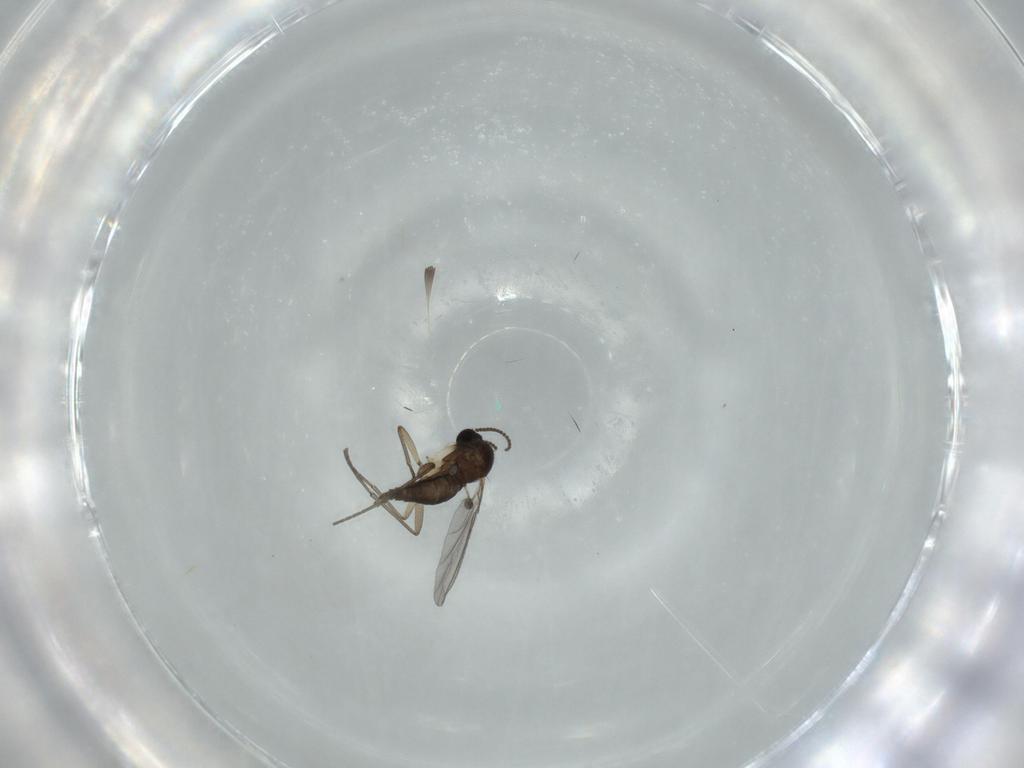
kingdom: Animalia
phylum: Arthropoda
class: Insecta
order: Diptera
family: Sciaridae
